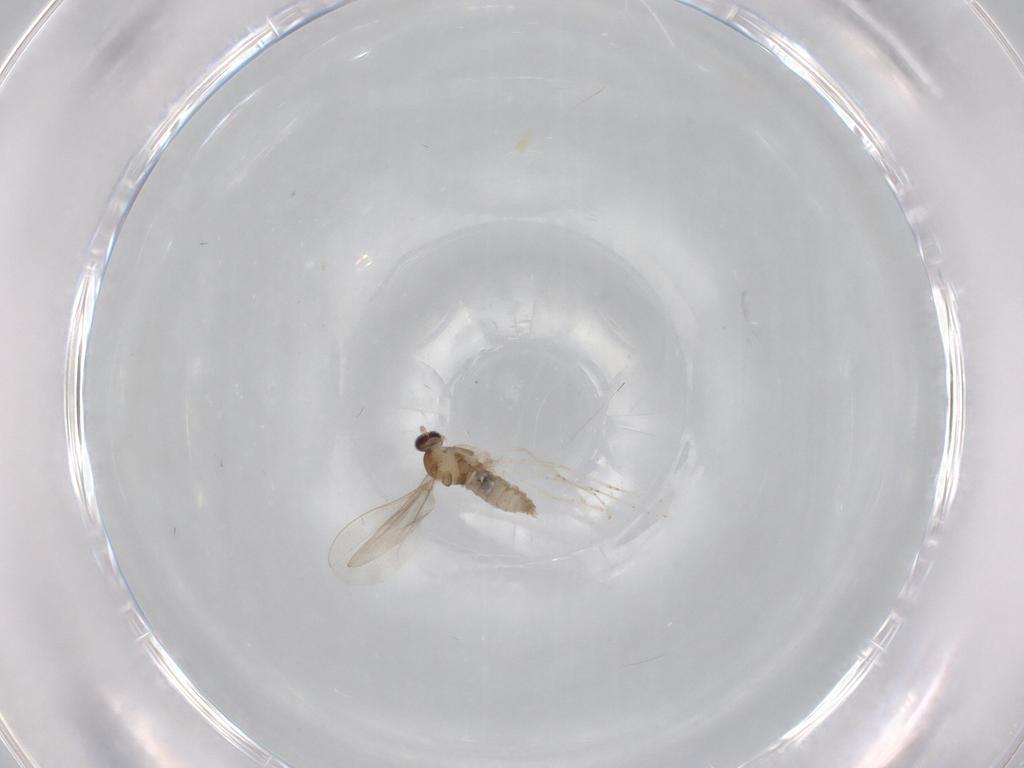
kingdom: Animalia
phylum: Arthropoda
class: Insecta
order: Diptera
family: Cecidomyiidae
